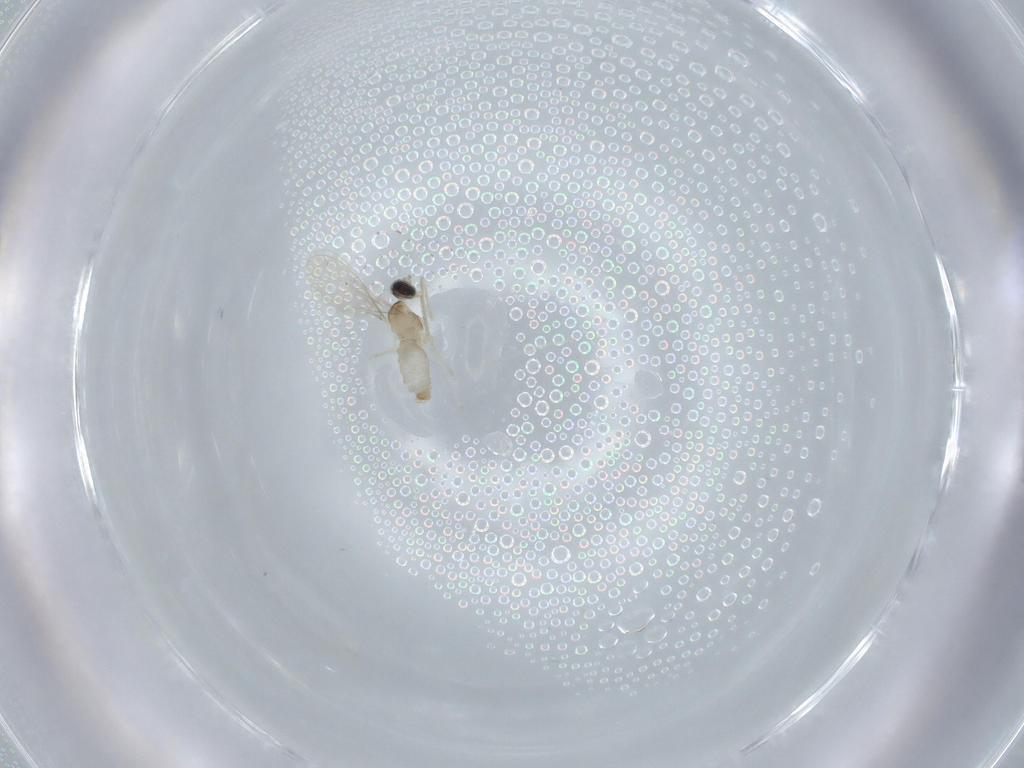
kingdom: Animalia
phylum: Arthropoda
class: Insecta
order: Diptera
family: Cecidomyiidae
